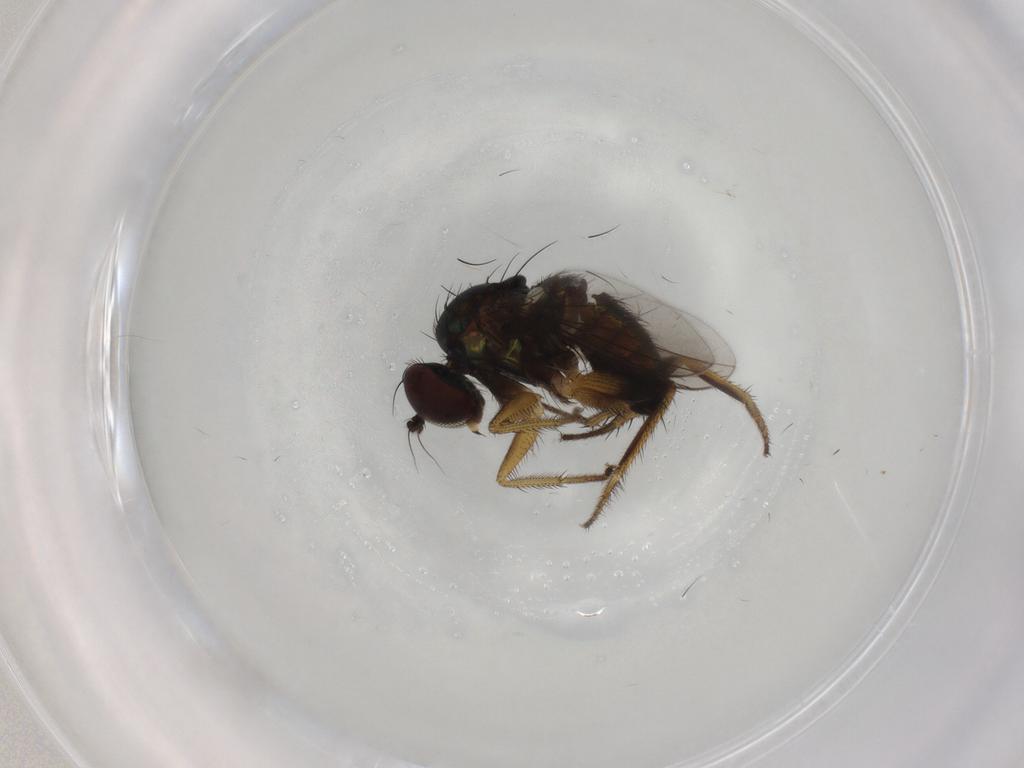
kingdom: Animalia
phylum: Arthropoda
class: Insecta
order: Diptera
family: Dolichopodidae
